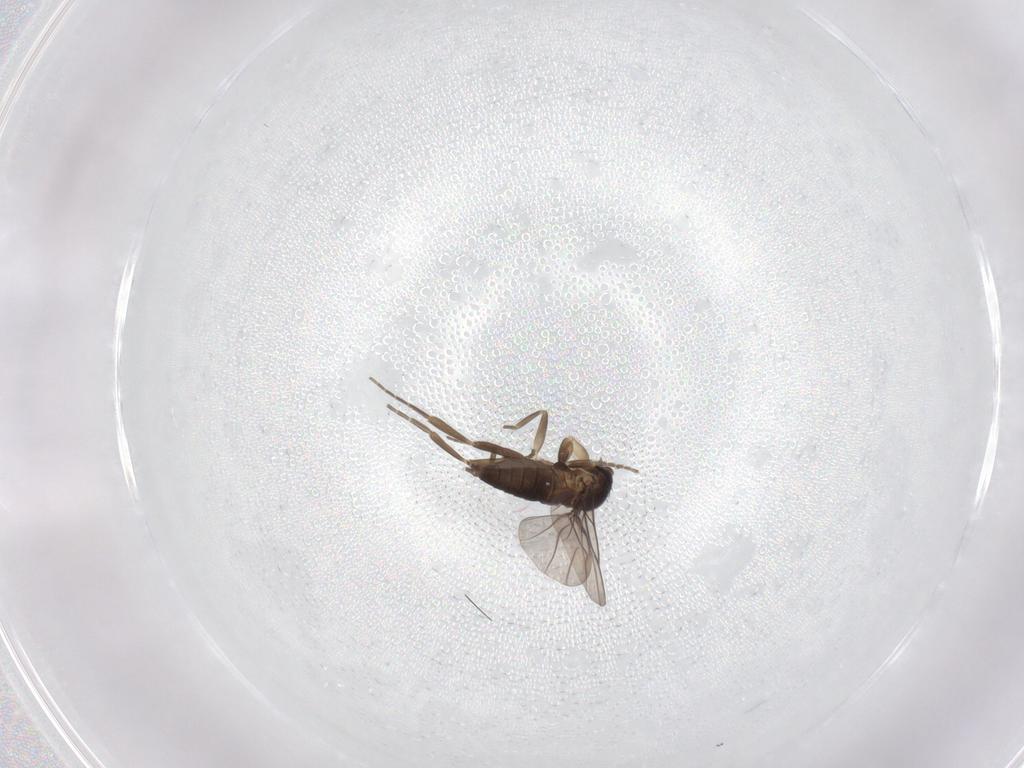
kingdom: Animalia
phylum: Arthropoda
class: Insecta
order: Diptera
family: Phoridae
